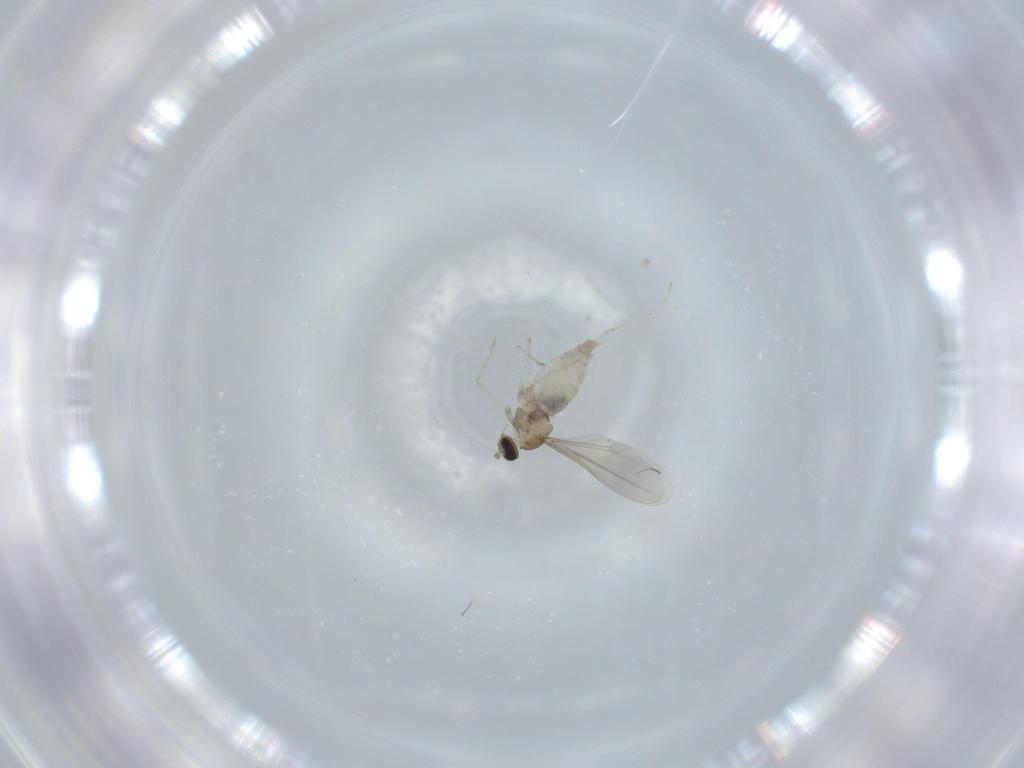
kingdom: Animalia
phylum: Arthropoda
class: Insecta
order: Diptera
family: Cecidomyiidae
